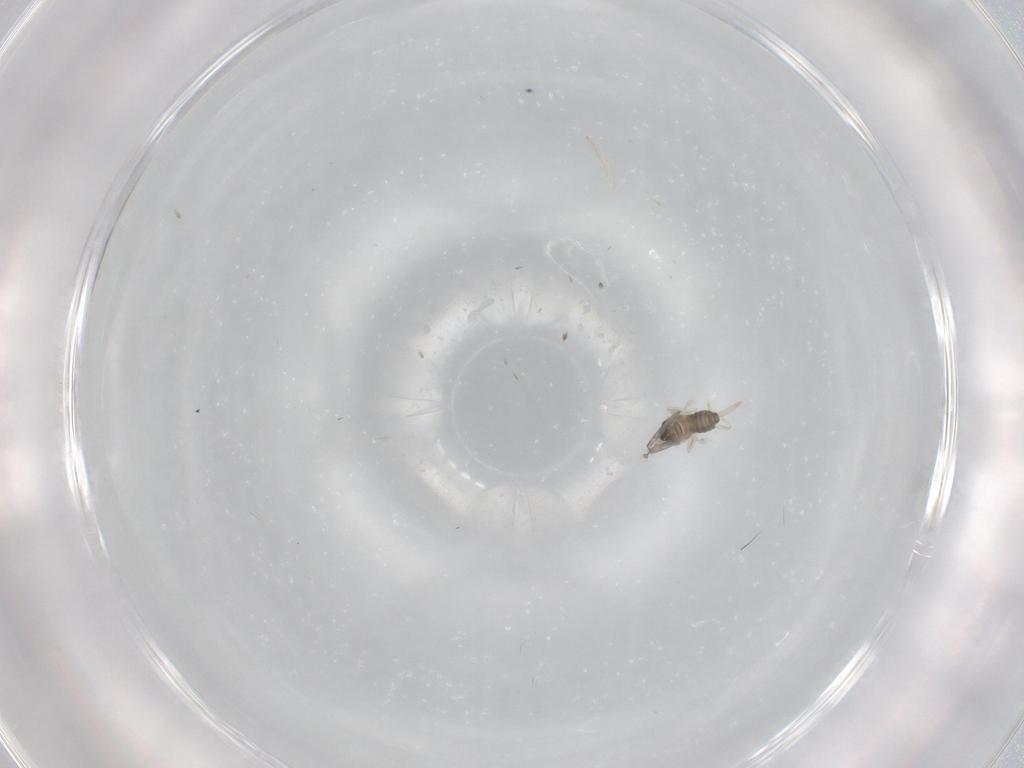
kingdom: Animalia
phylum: Arthropoda
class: Insecta
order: Diptera
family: Cecidomyiidae
